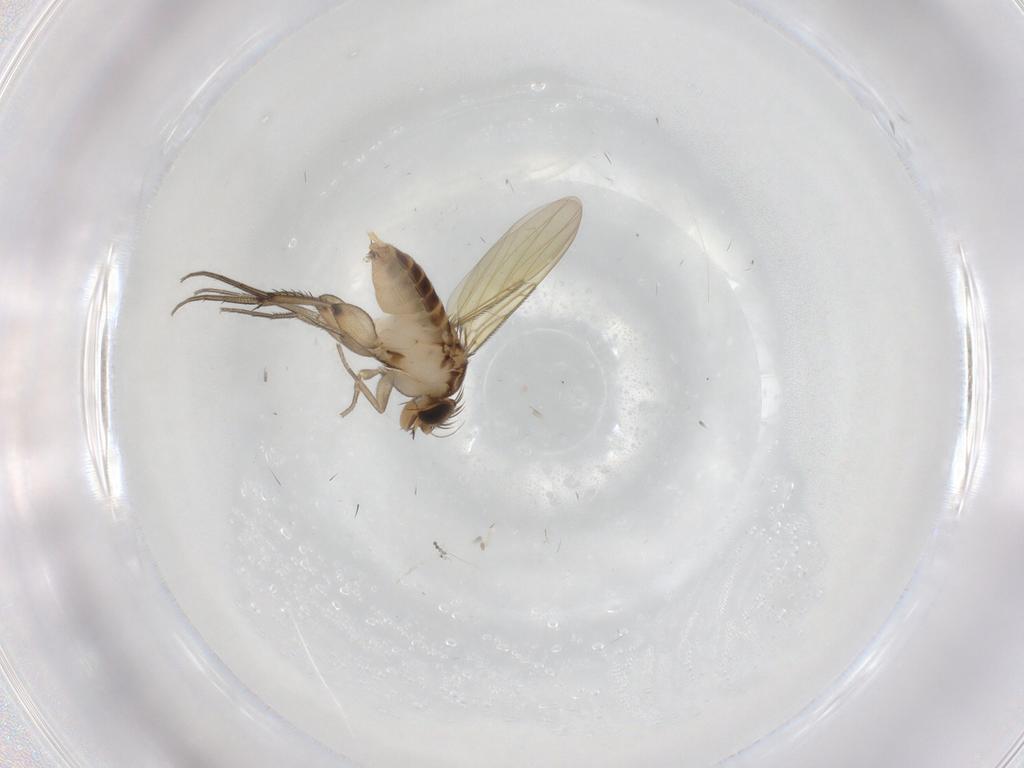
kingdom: Animalia
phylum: Arthropoda
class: Insecta
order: Diptera
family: Phoridae
